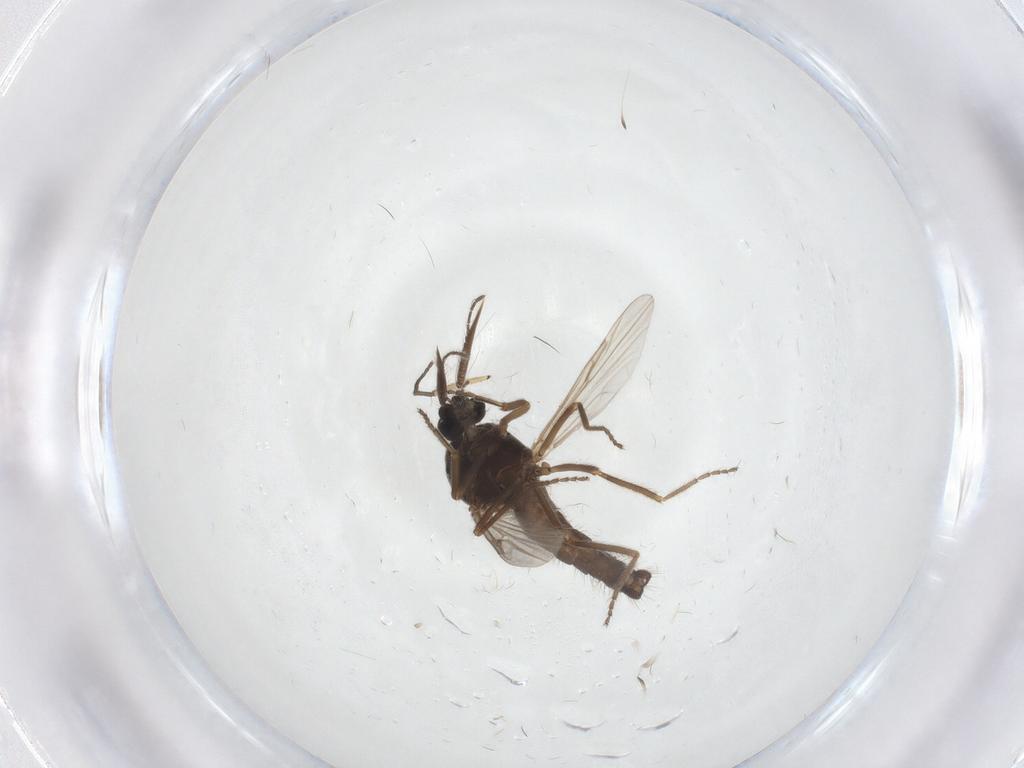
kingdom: Animalia
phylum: Arthropoda
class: Insecta
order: Diptera
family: Ceratopogonidae
